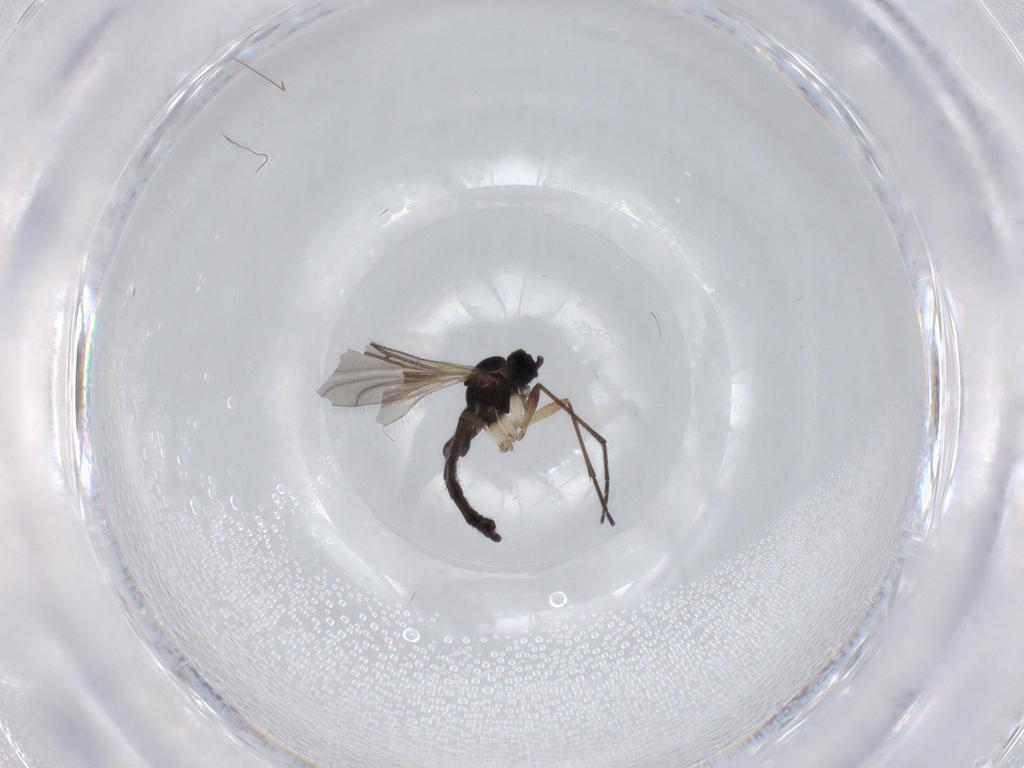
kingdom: Animalia
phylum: Arthropoda
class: Insecta
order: Diptera
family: Sciaridae
